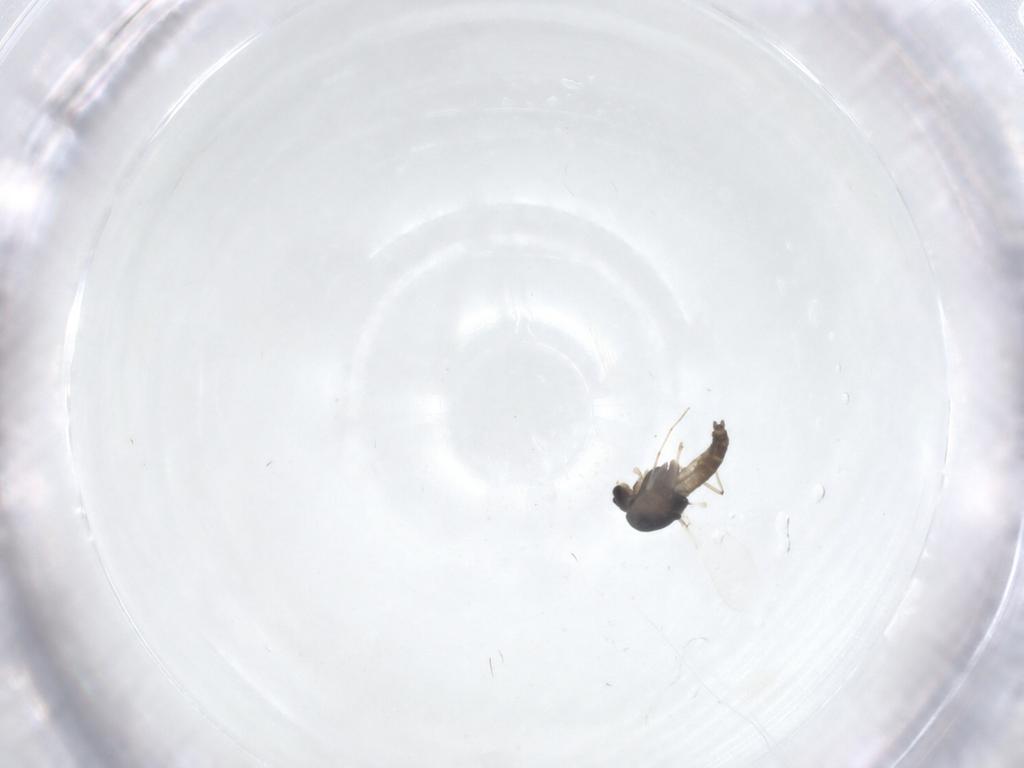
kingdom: Animalia
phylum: Arthropoda
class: Insecta
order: Diptera
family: Chironomidae
